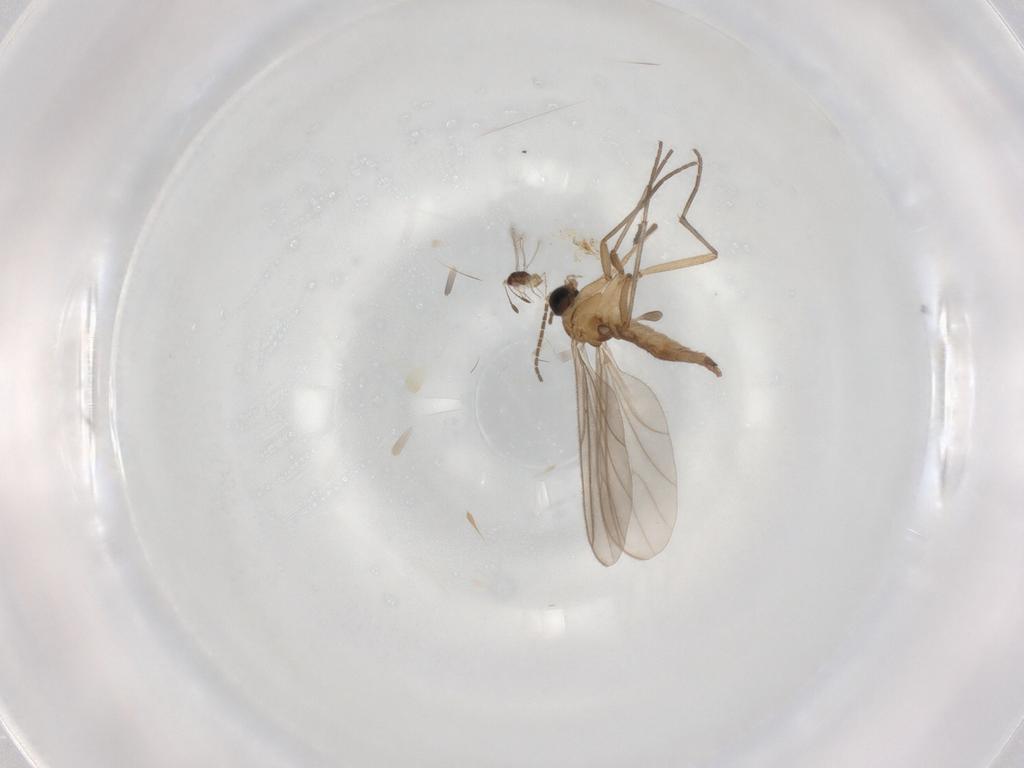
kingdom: Animalia
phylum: Arthropoda
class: Insecta
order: Diptera
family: Sciaridae
